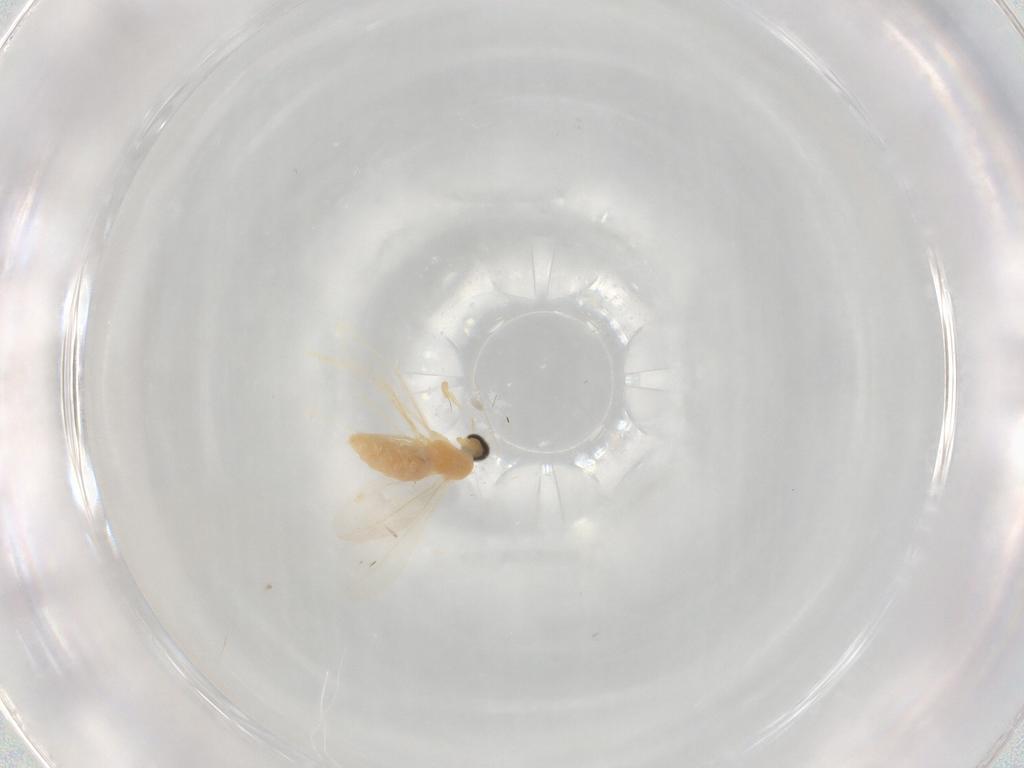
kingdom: Animalia
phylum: Arthropoda
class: Insecta
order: Diptera
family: Cecidomyiidae
